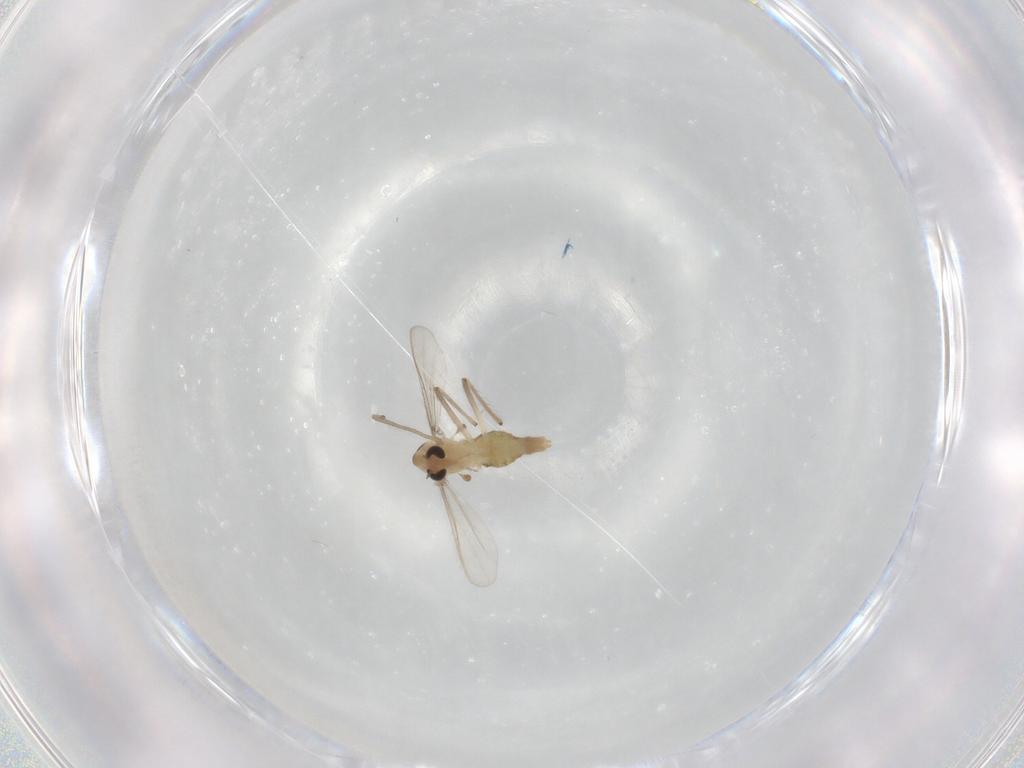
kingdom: Animalia
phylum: Arthropoda
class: Insecta
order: Diptera
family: Chironomidae
